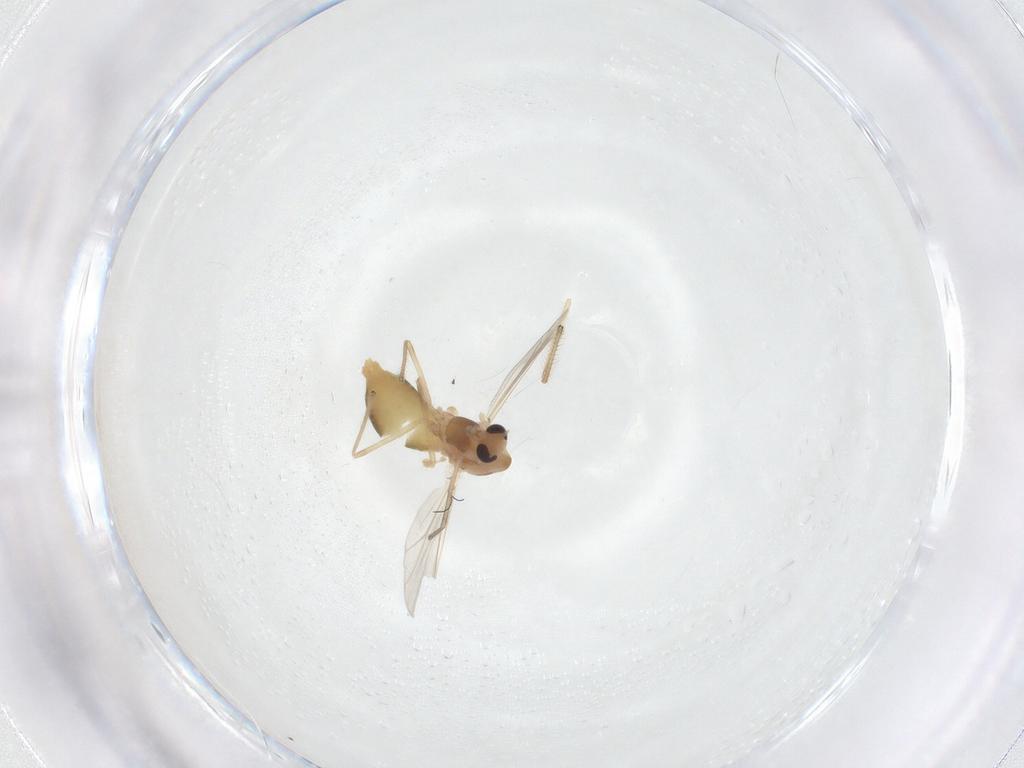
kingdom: Animalia
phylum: Arthropoda
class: Insecta
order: Diptera
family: Chironomidae
